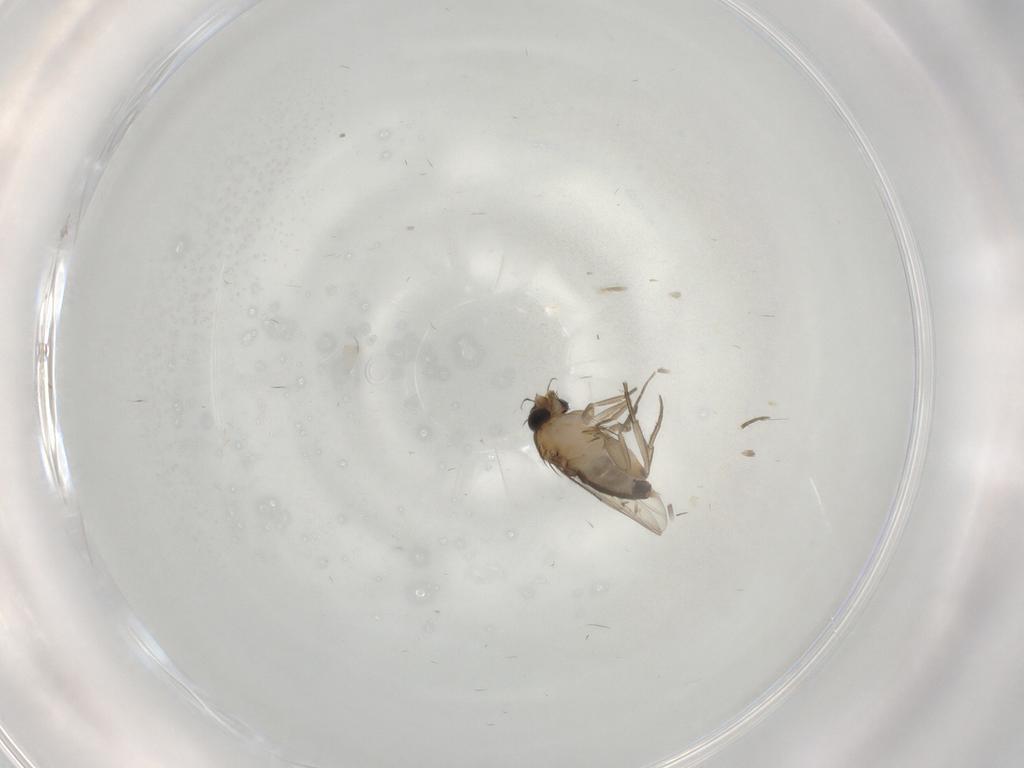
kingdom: Animalia
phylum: Arthropoda
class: Insecta
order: Diptera
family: Phoridae
